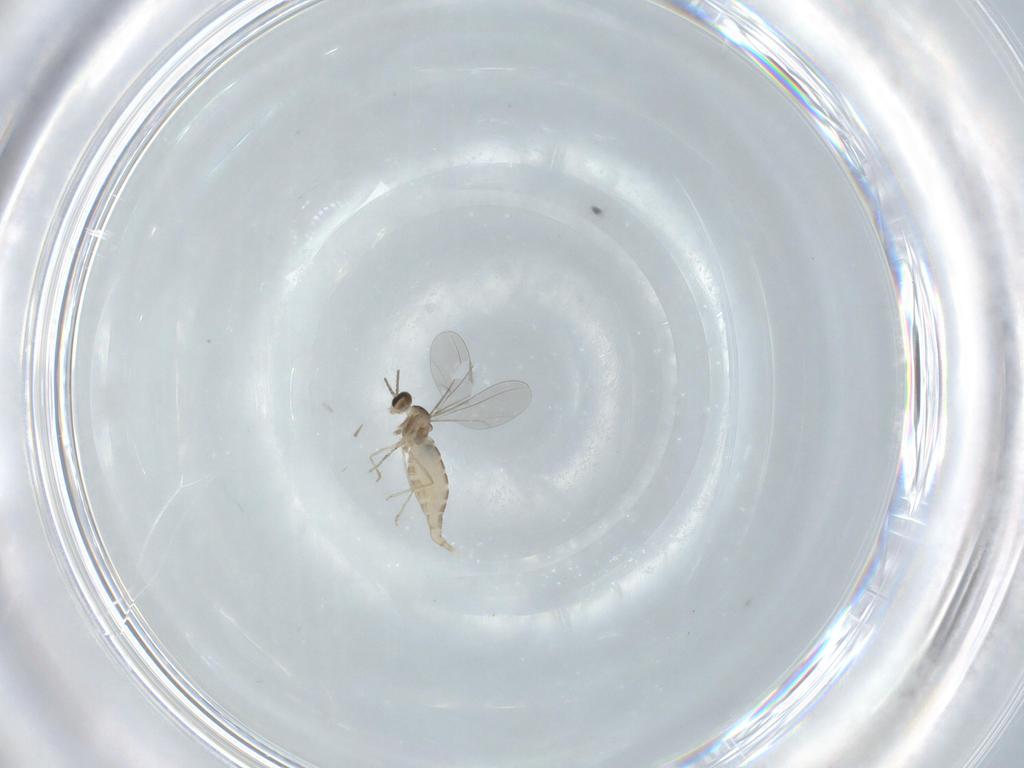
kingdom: Animalia
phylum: Arthropoda
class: Insecta
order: Diptera
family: Cecidomyiidae
